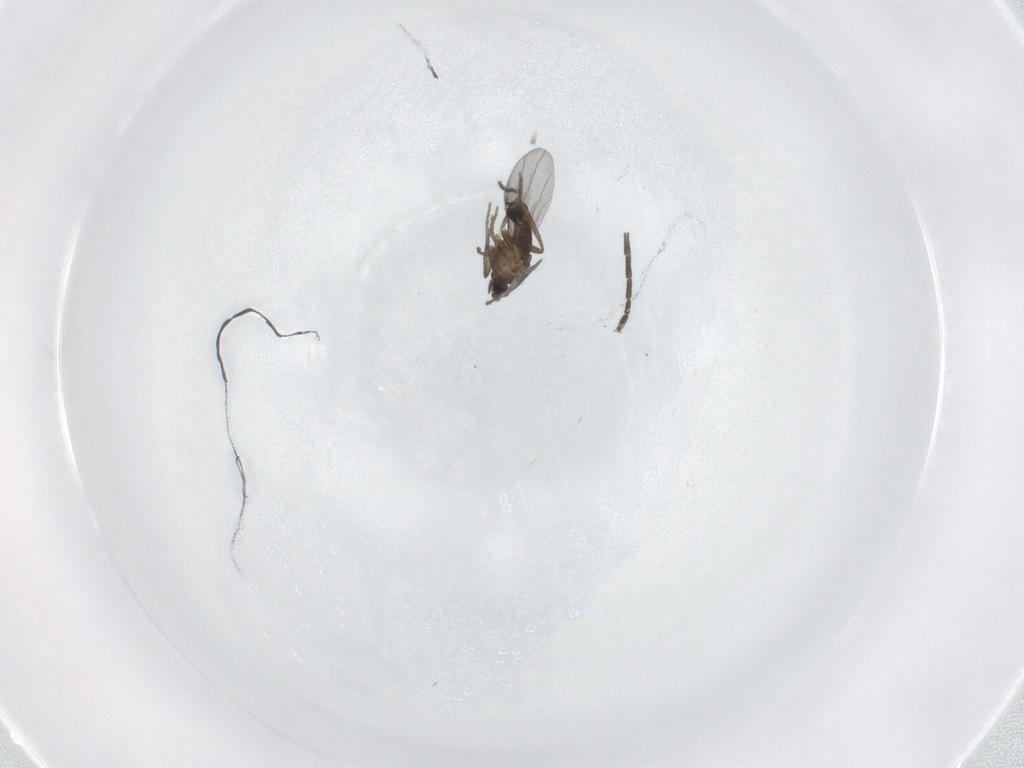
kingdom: Animalia
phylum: Arthropoda
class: Insecta
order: Diptera
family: Phoridae
